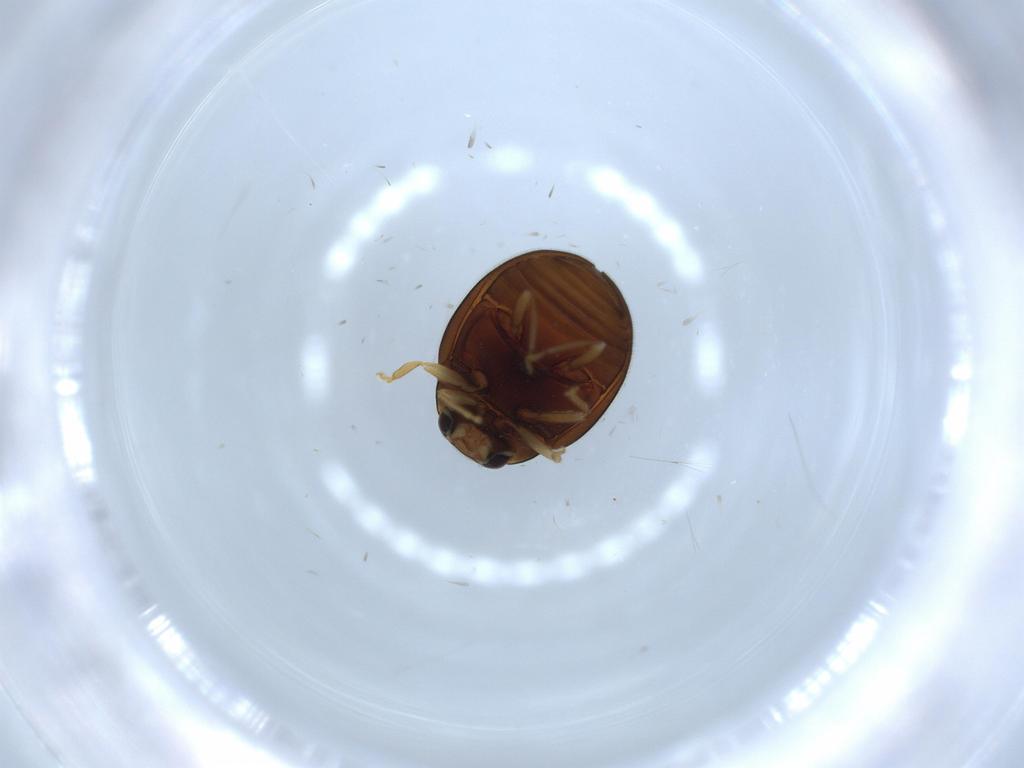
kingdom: Animalia
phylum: Arthropoda
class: Insecta
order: Coleoptera
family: Coccinellidae
